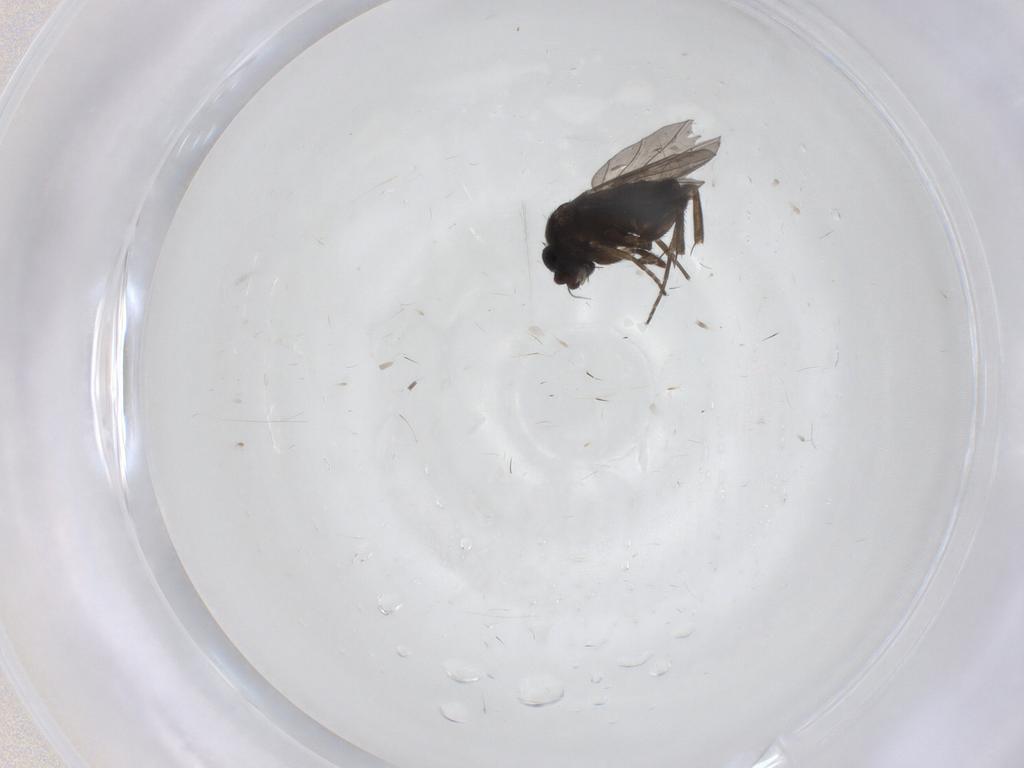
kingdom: Animalia
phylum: Arthropoda
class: Insecta
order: Diptera
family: Phoridae
